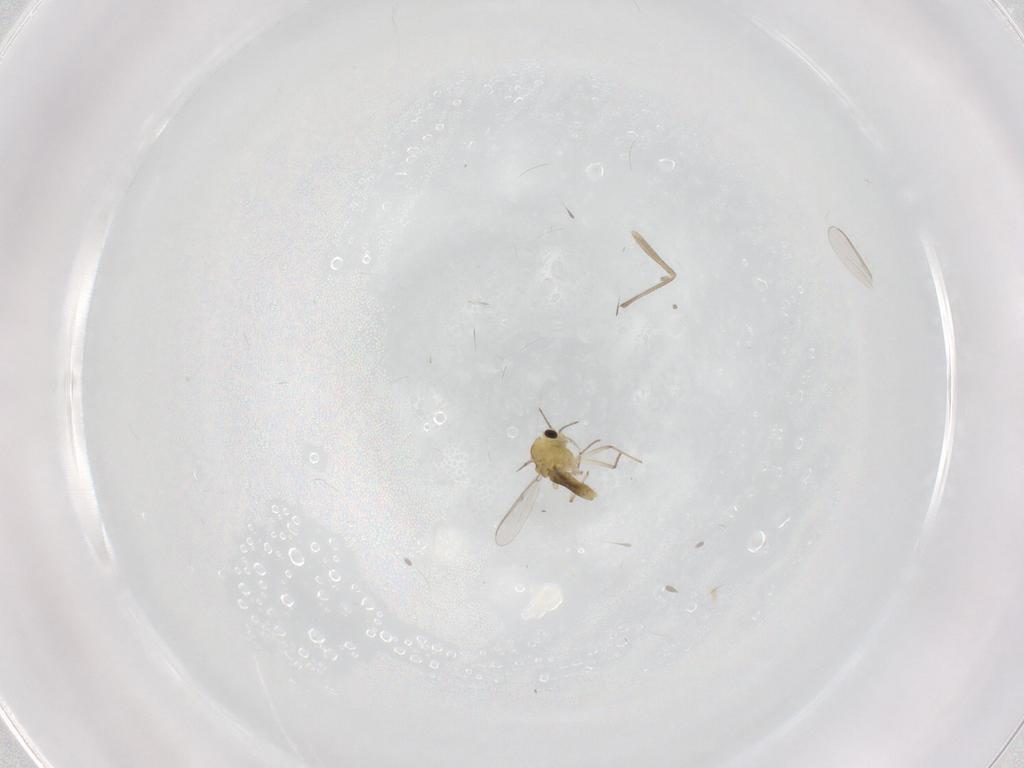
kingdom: Animalia
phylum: Arthropoda
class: Insecta
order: Diptera
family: Chironomidae
